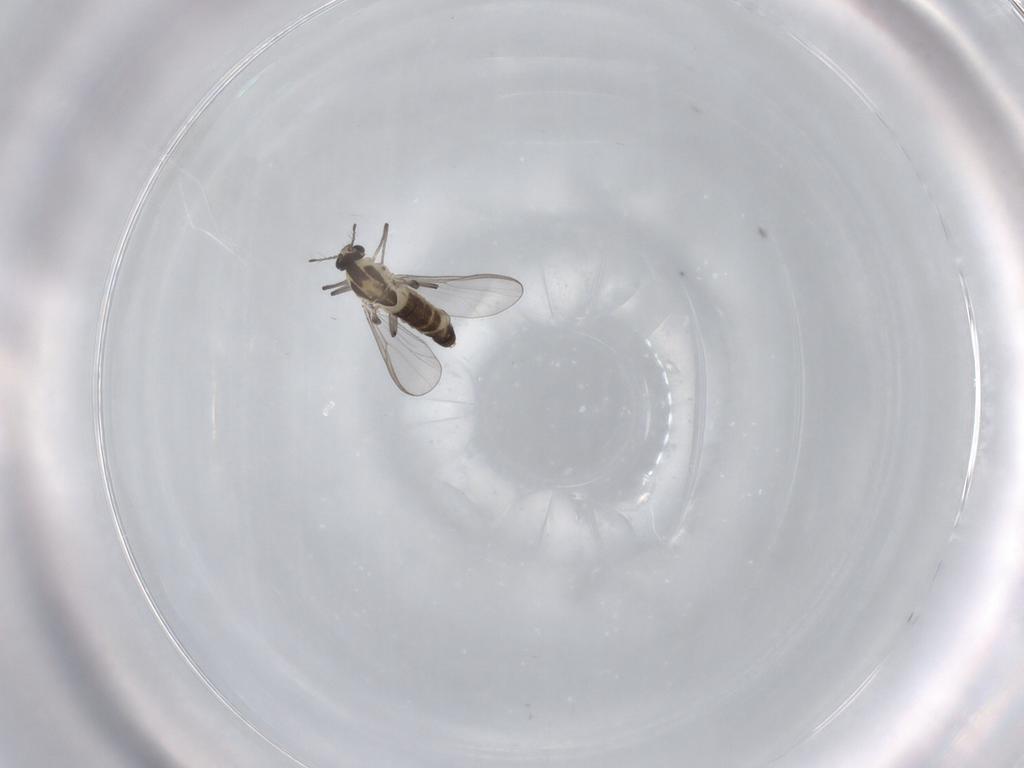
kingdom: Animalia
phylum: Arthropoda
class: Insecta
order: Diptera
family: Chironomidae
